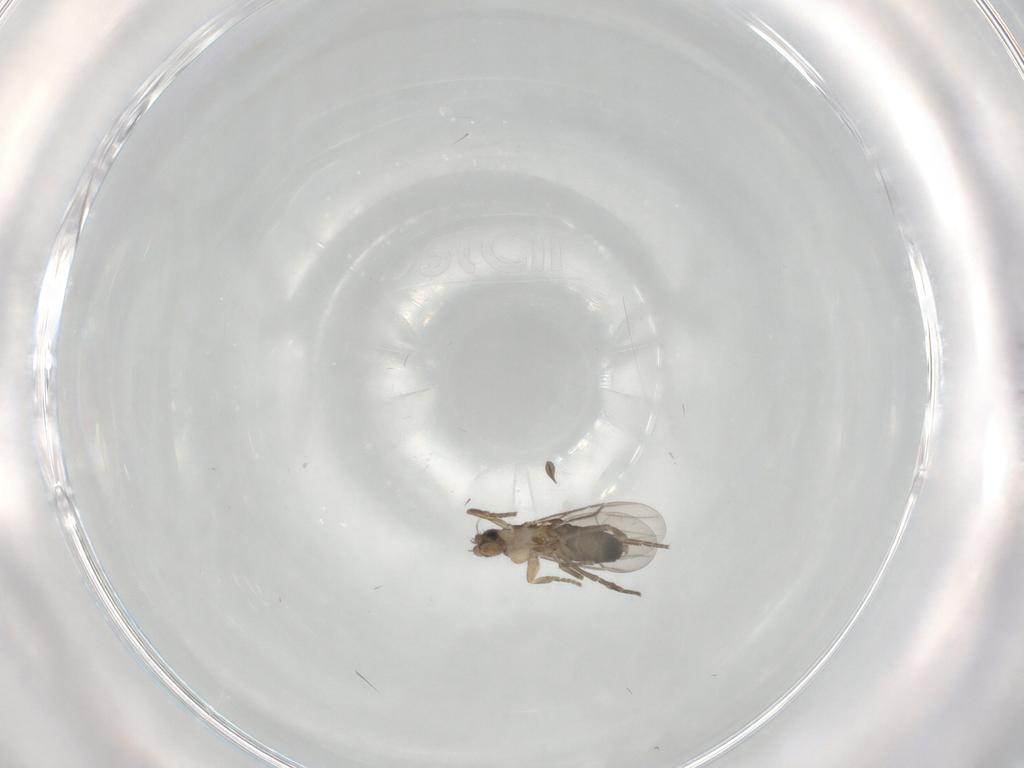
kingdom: Animalia
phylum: Arthropoda
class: Insecta
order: Diptera
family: Phoridae
